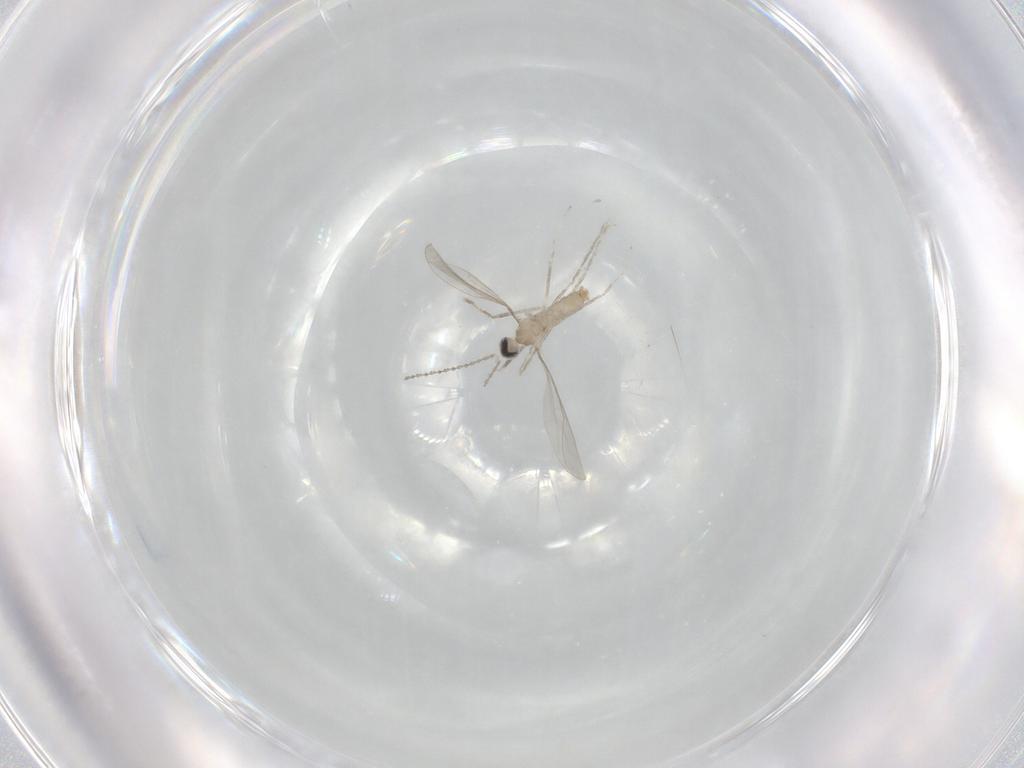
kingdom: Animalia
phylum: Arthropoda
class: Insecta
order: Diptera
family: Cecidomyiidae
